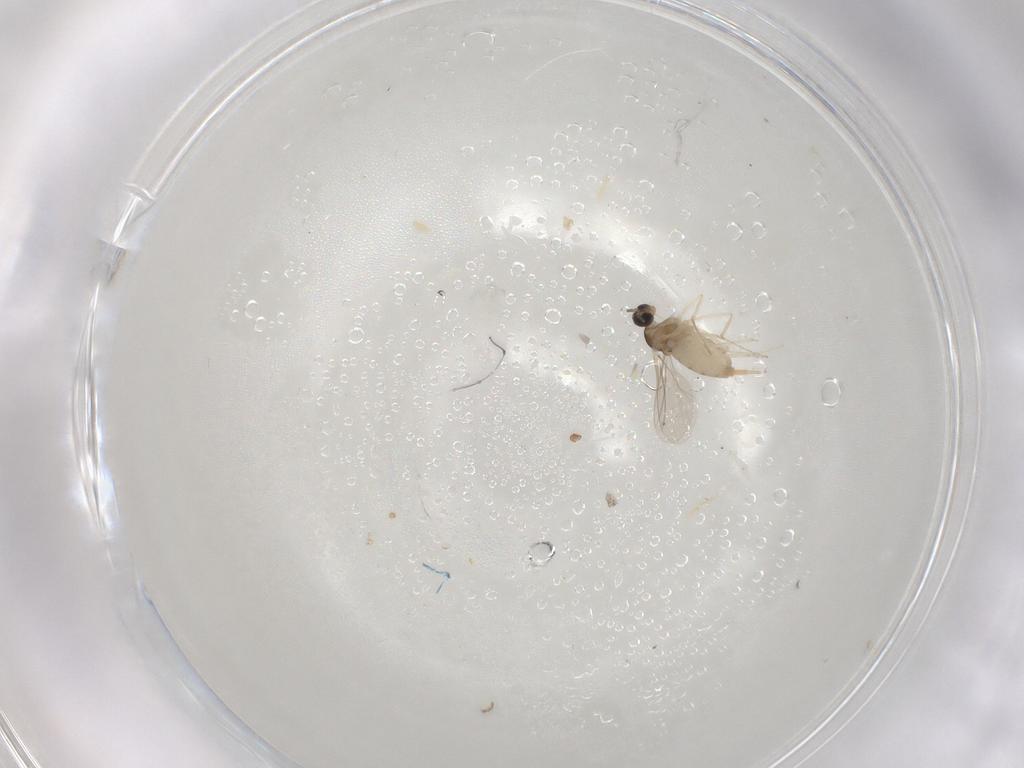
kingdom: Animalia
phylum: Arthropoda
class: Insecta
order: Diptera
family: Cecidomyiidae
